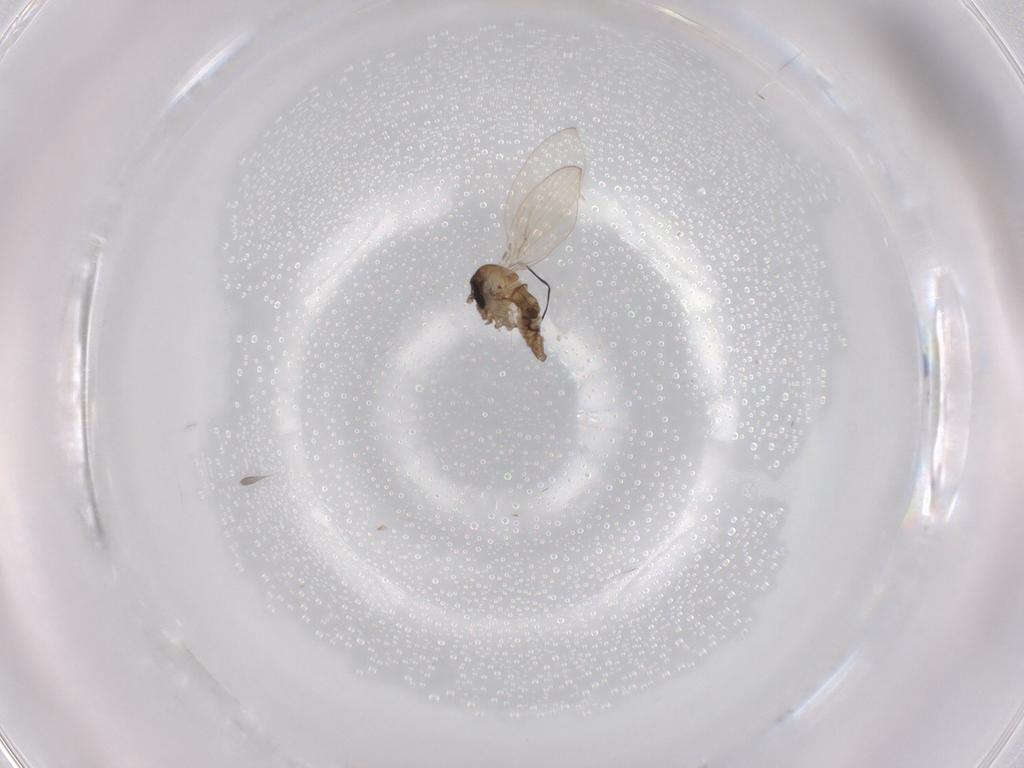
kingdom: Animalia
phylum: Arthropoda
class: Insecta
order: Diptera
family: Psychodidae
